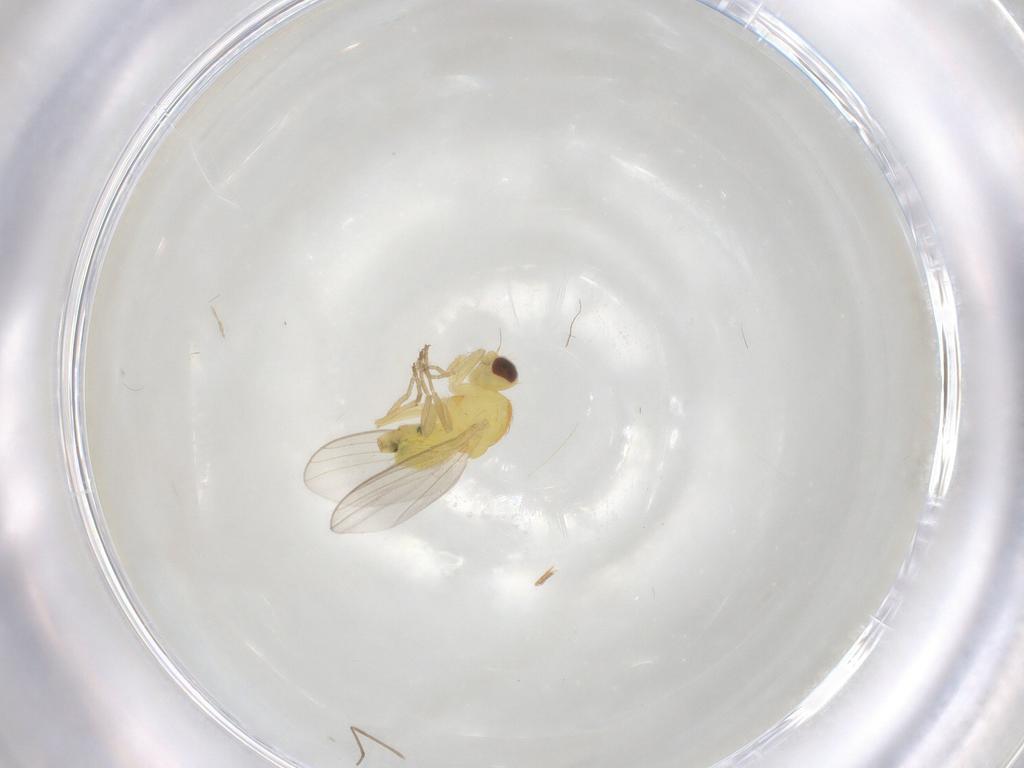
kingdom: Animalia
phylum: Arthropoda
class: Insecta
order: Diptera
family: Cecidomyiidae
